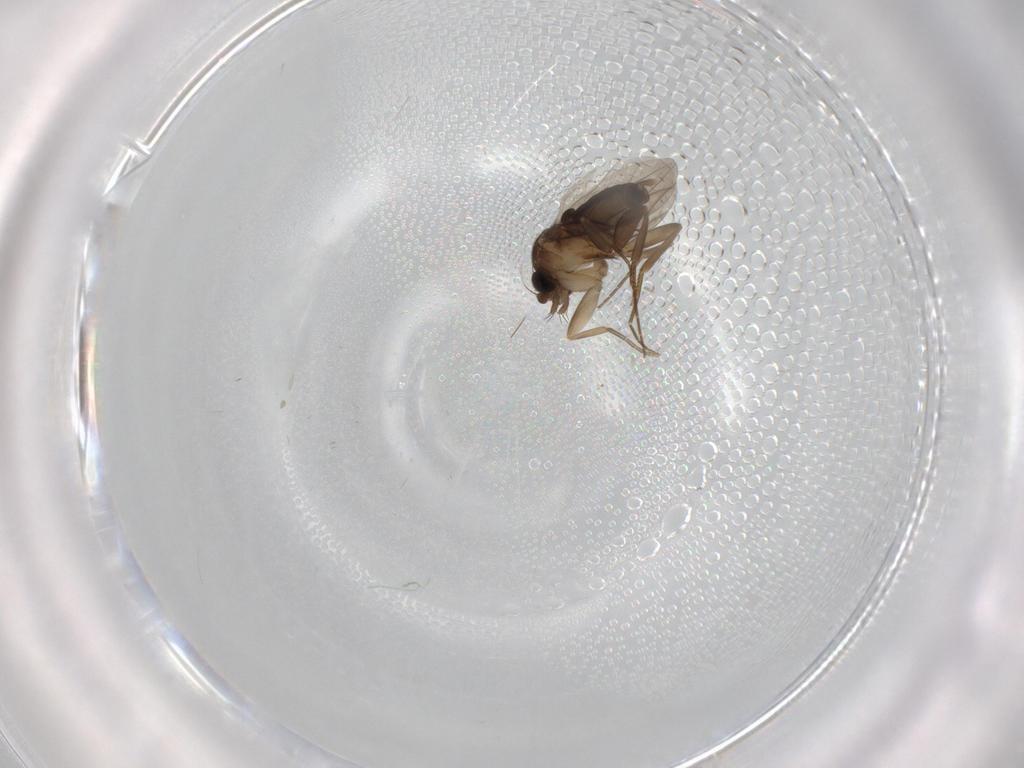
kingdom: Animalia
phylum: Arthropoda
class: Insecta
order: Diptera
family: Phoridae
